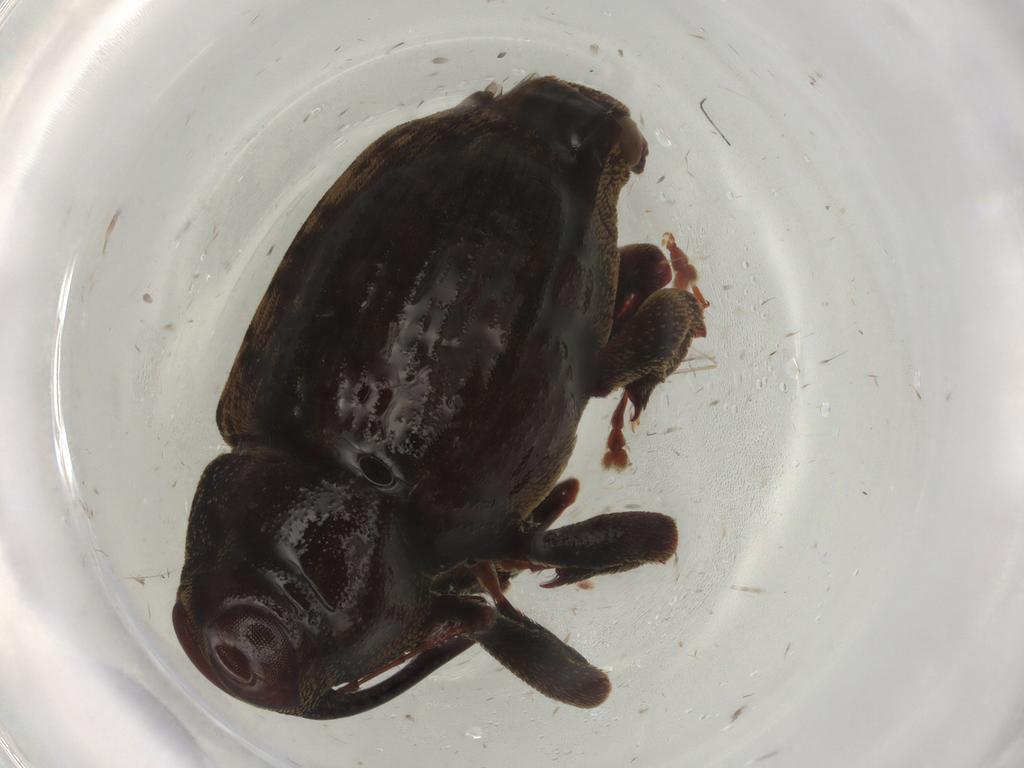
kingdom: Animalia
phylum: Arthropoda
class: Insecta
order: Coleoptera
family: Curculionidae
